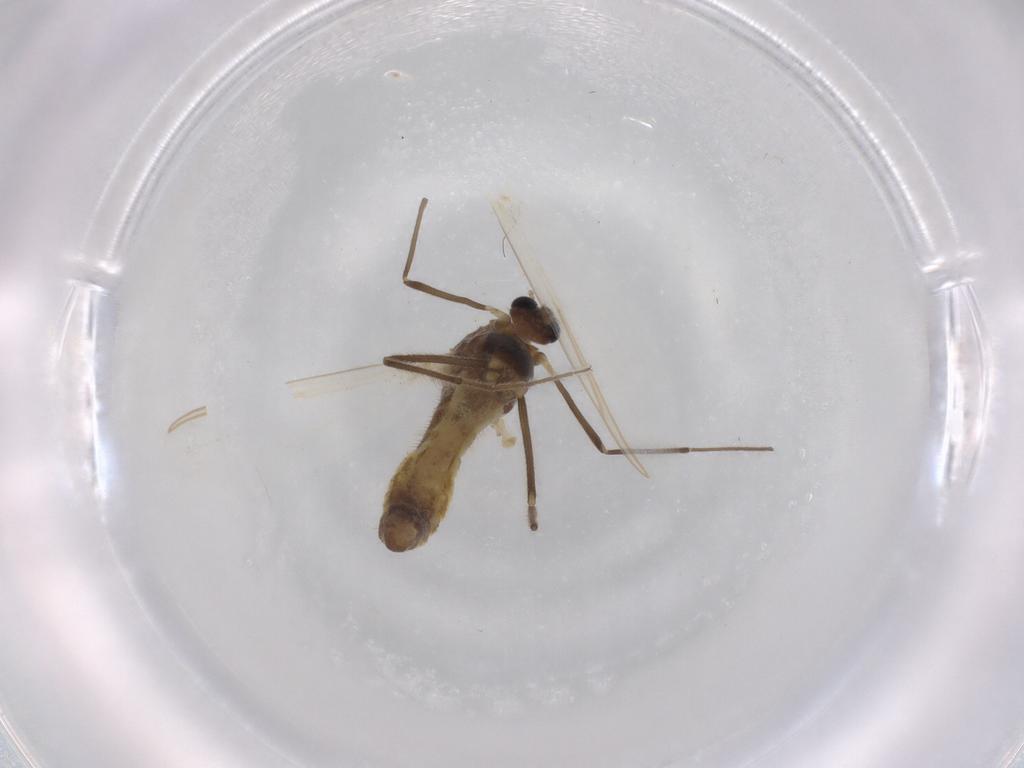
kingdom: Animalia
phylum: Arthropoda
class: Insecta
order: Diptera
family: Chironomidae
